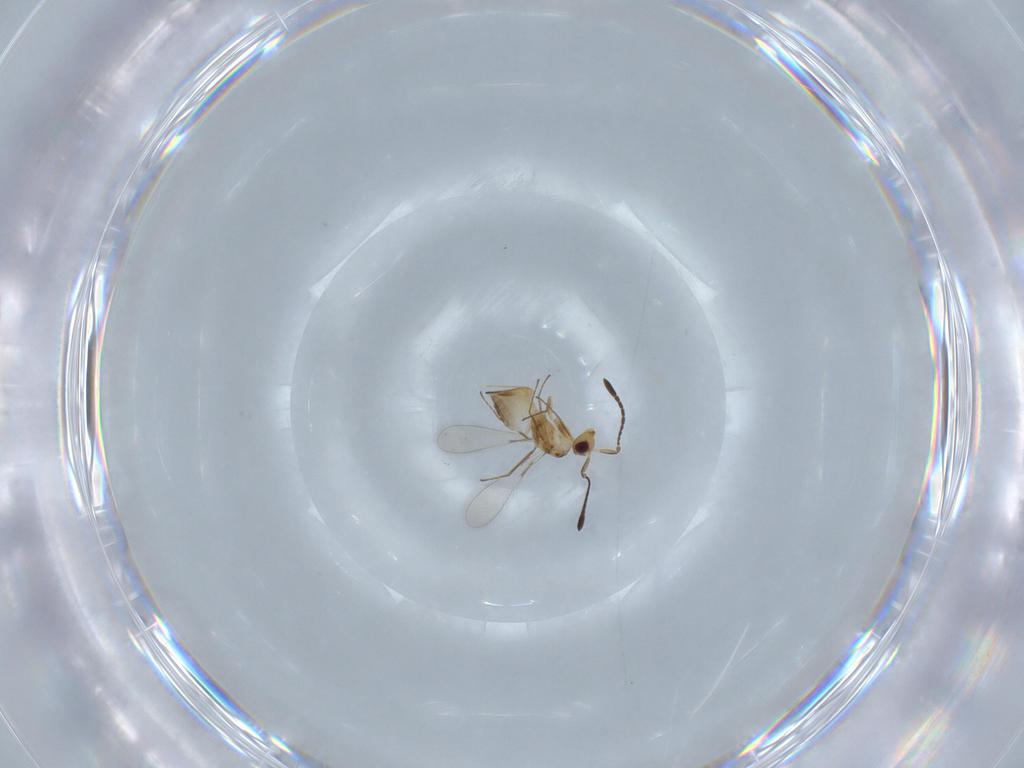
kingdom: Animalia
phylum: Arthropoda
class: Insecta
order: Hymenoptera
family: Mymaridae
